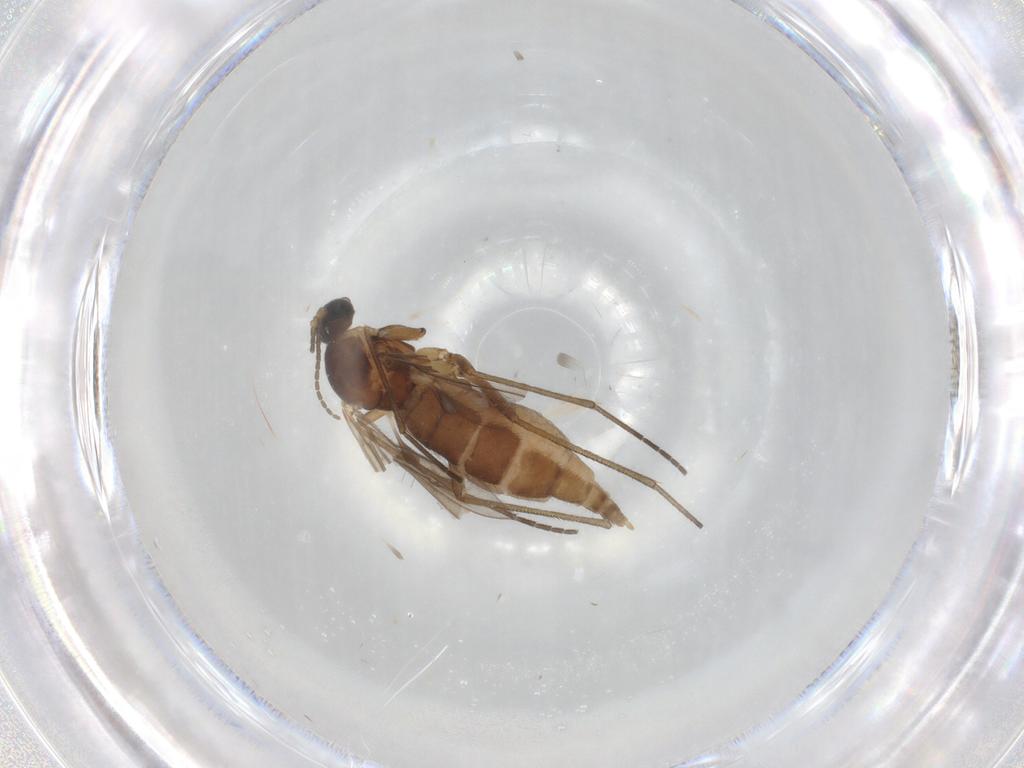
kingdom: Animalia
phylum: Arthropoda
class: Insecta
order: Diptera
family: Sciaridae
